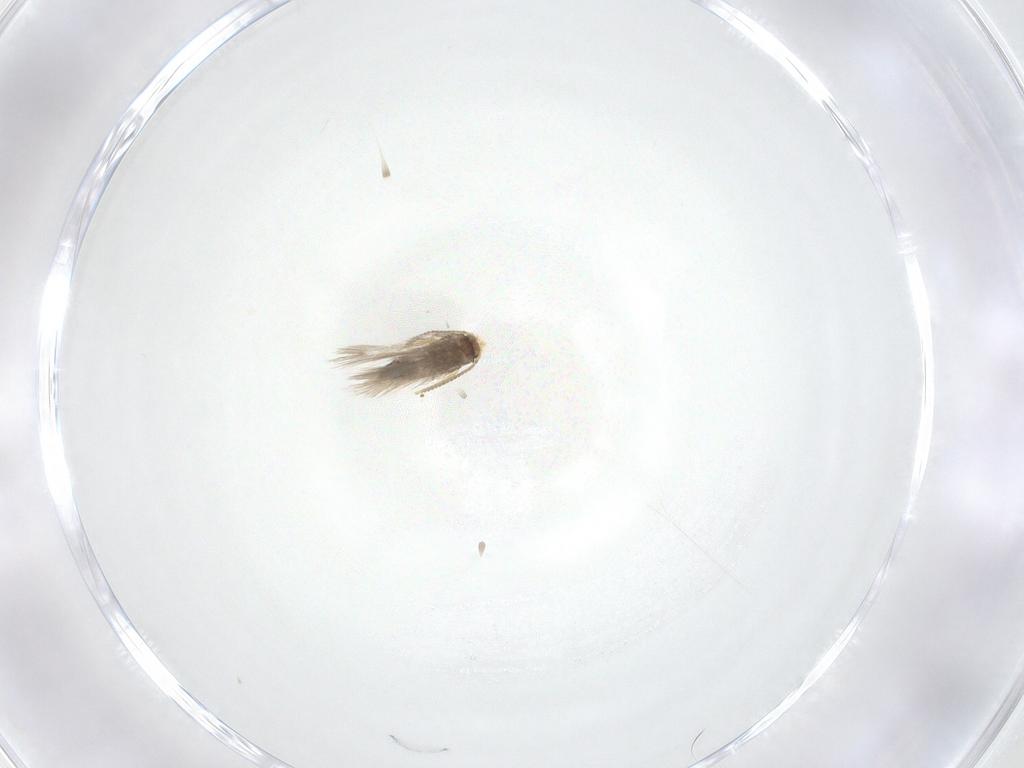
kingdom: Animalia
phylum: Arthropoda
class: Insecta
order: Lepidoptera
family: Nepticulidae
